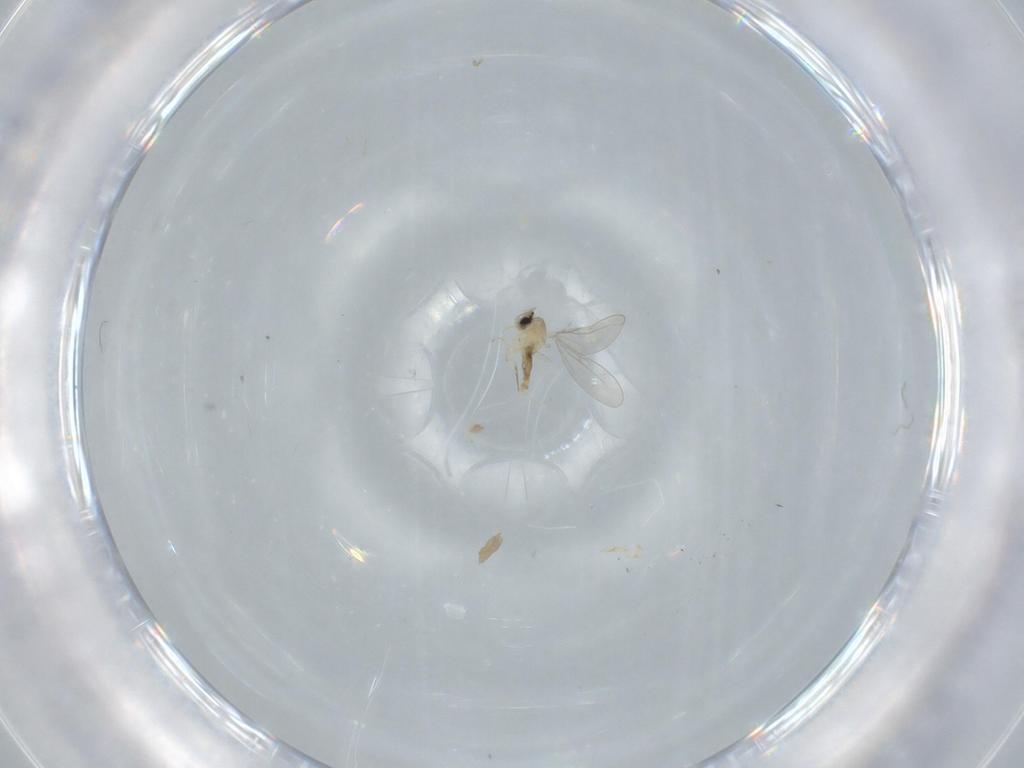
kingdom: Animalia
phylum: Arthropoda
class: Insecta
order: Diptera
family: Cecidomyiidae
